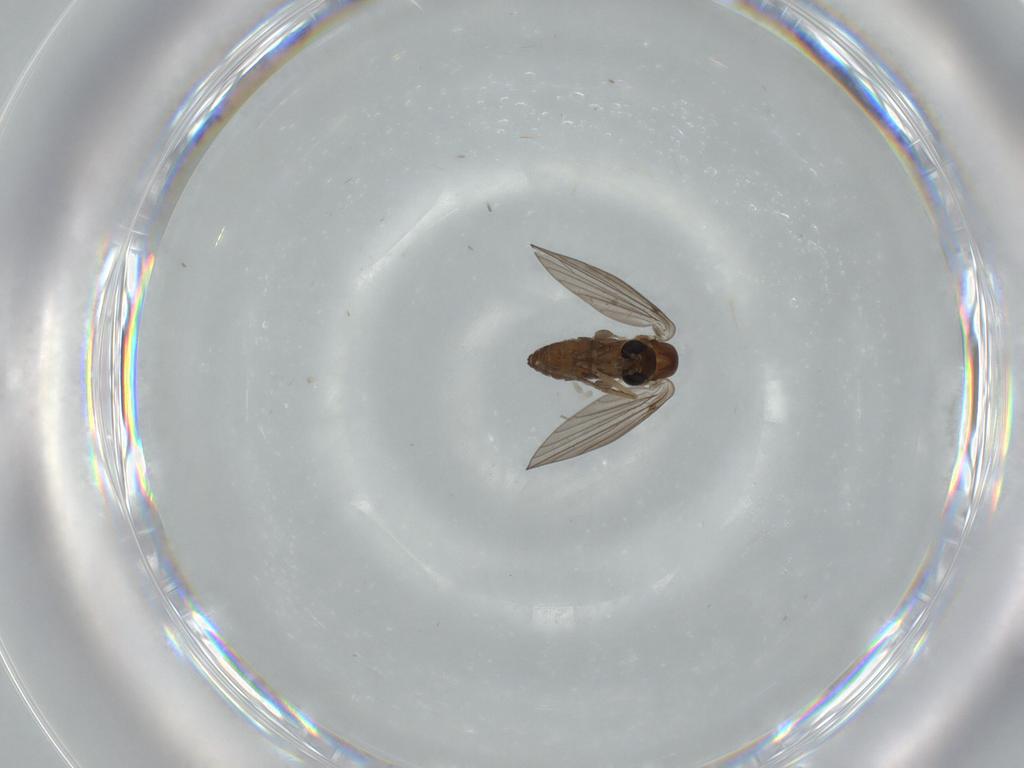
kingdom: Animalia
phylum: Arthropoda
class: Insecta
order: Diptera
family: Psychodidae
